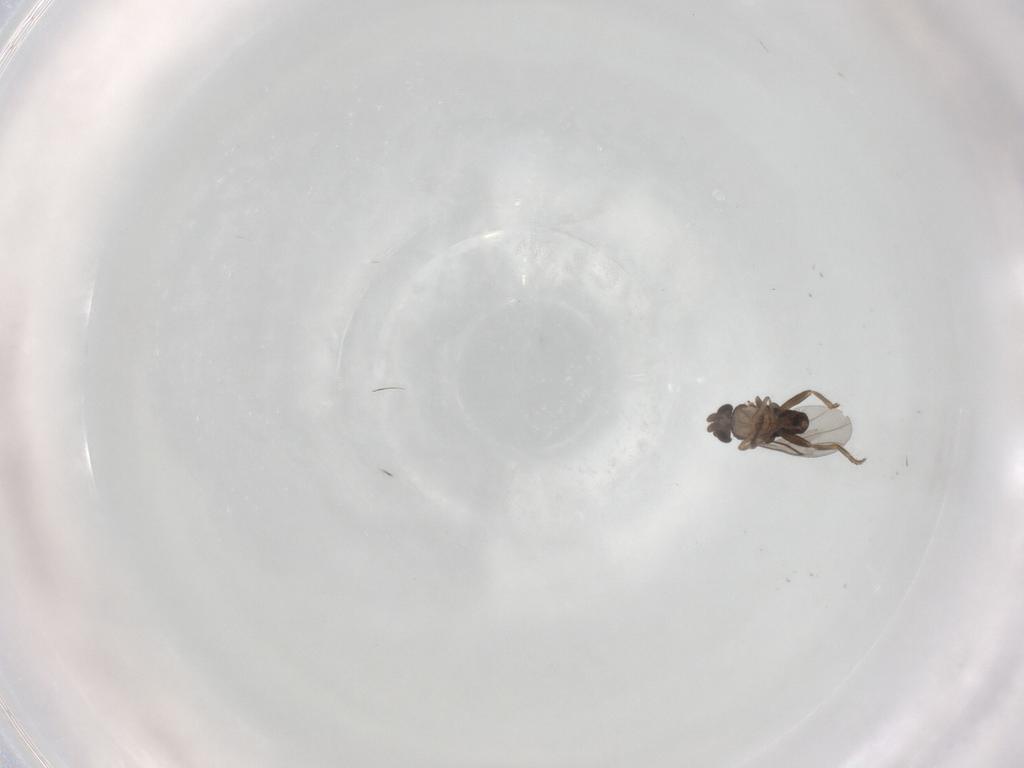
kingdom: Animalia
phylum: Arthropoda
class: Insecta
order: Diptera
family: Phoridae
